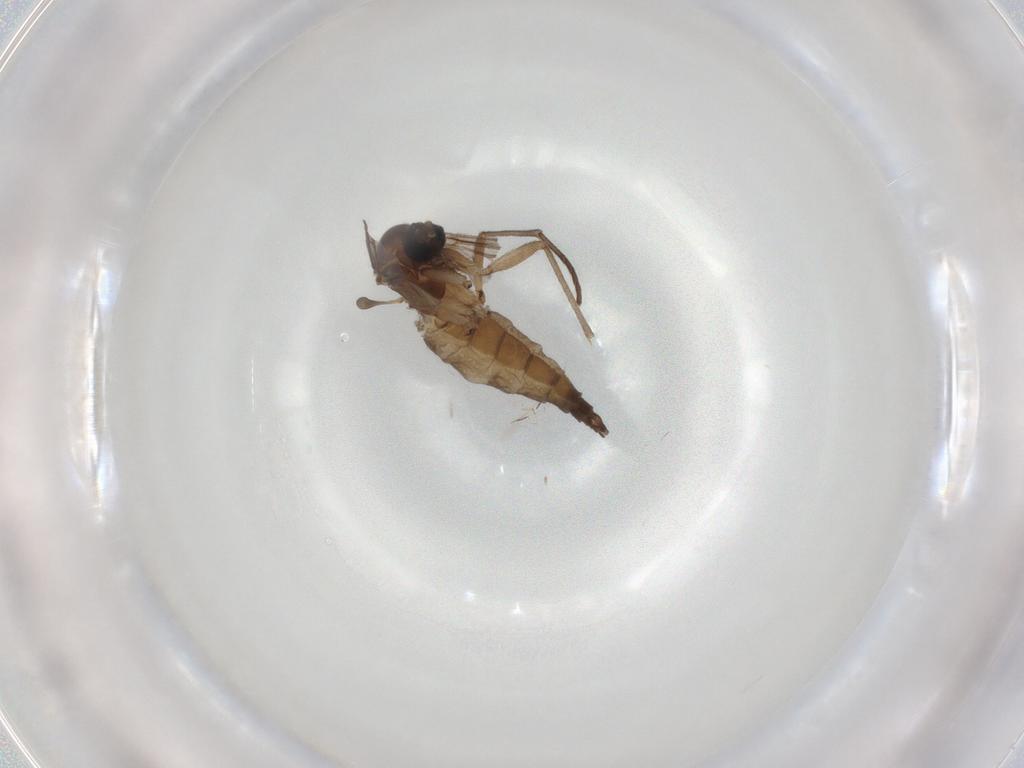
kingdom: Animalia
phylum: Arthropoda
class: Insecta
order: Diptera
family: Sciaridae
